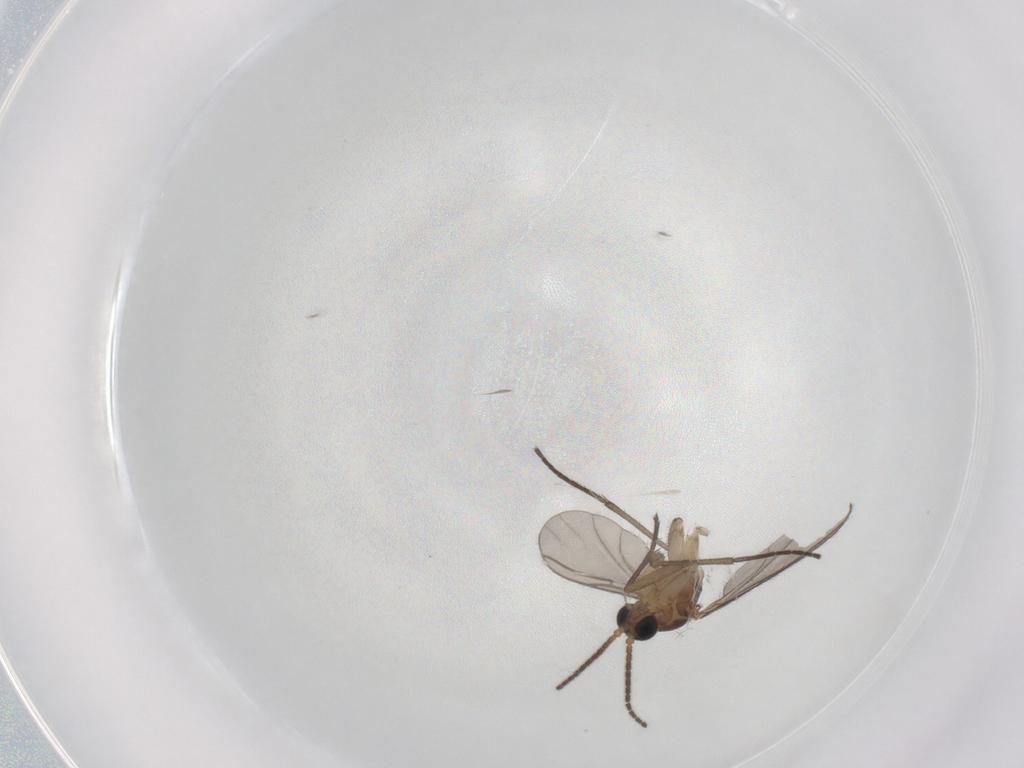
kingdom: Animalia
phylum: Arthropoda
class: Insecta
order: Diptera
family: Sciaridae
